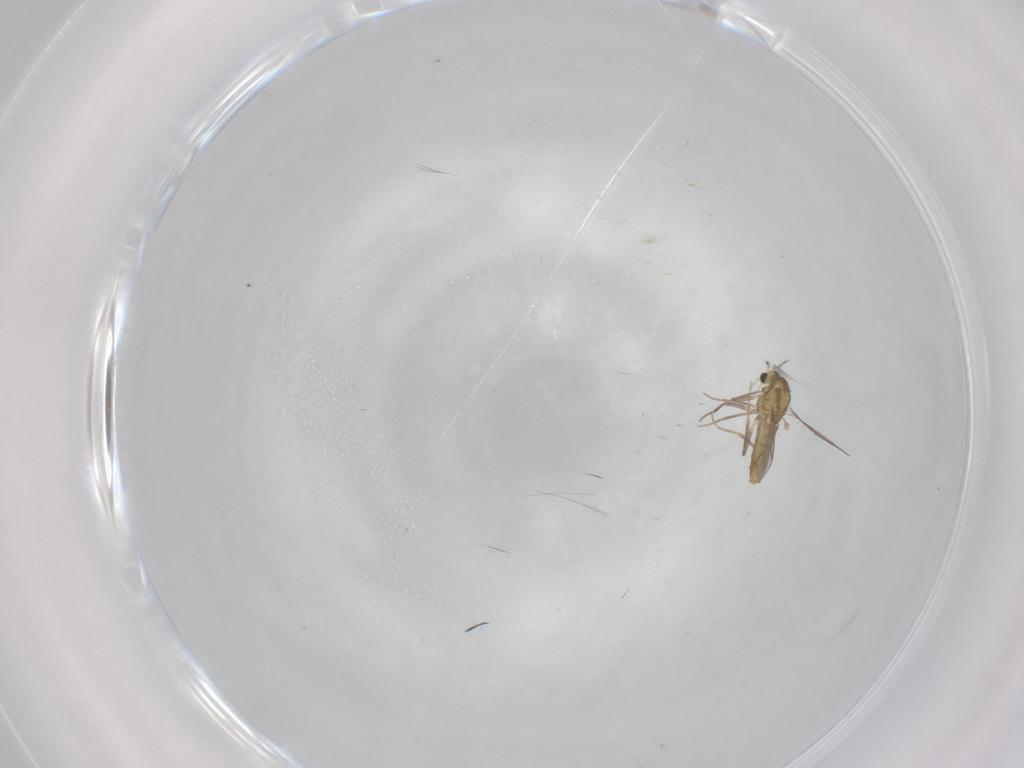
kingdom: Animalia
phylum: Arthropoda
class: Insecta
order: Diptera
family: Chironomidae
